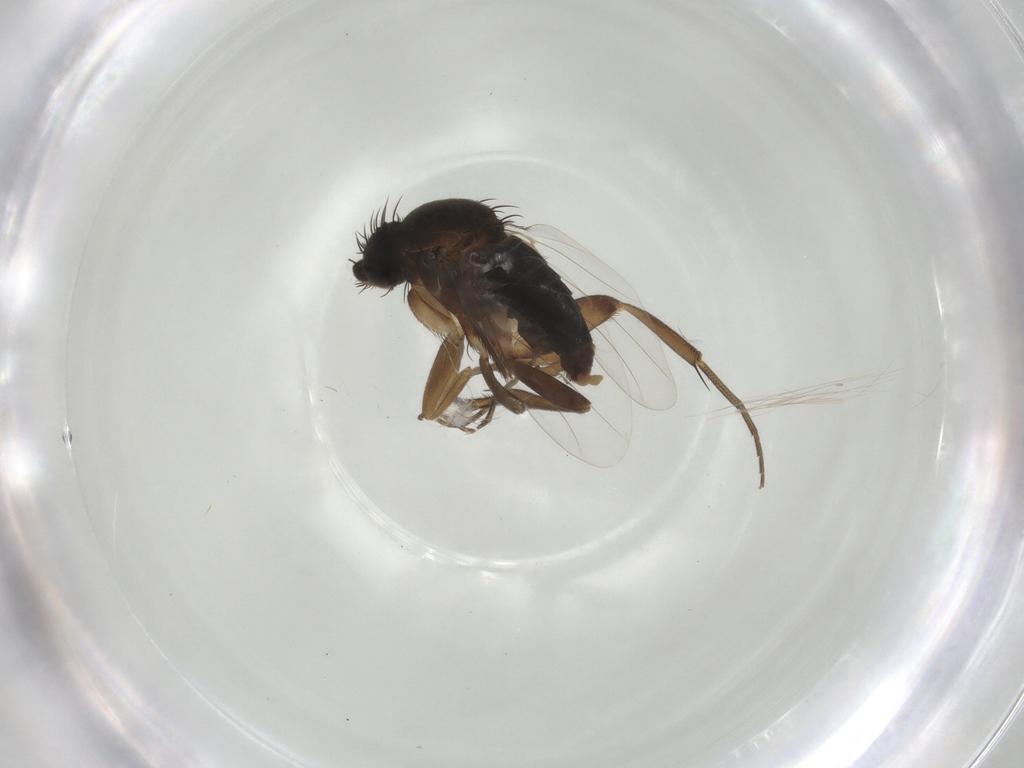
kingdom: Animalia
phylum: Arthropoda
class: Insecta
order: Diptera
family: Phoridae
